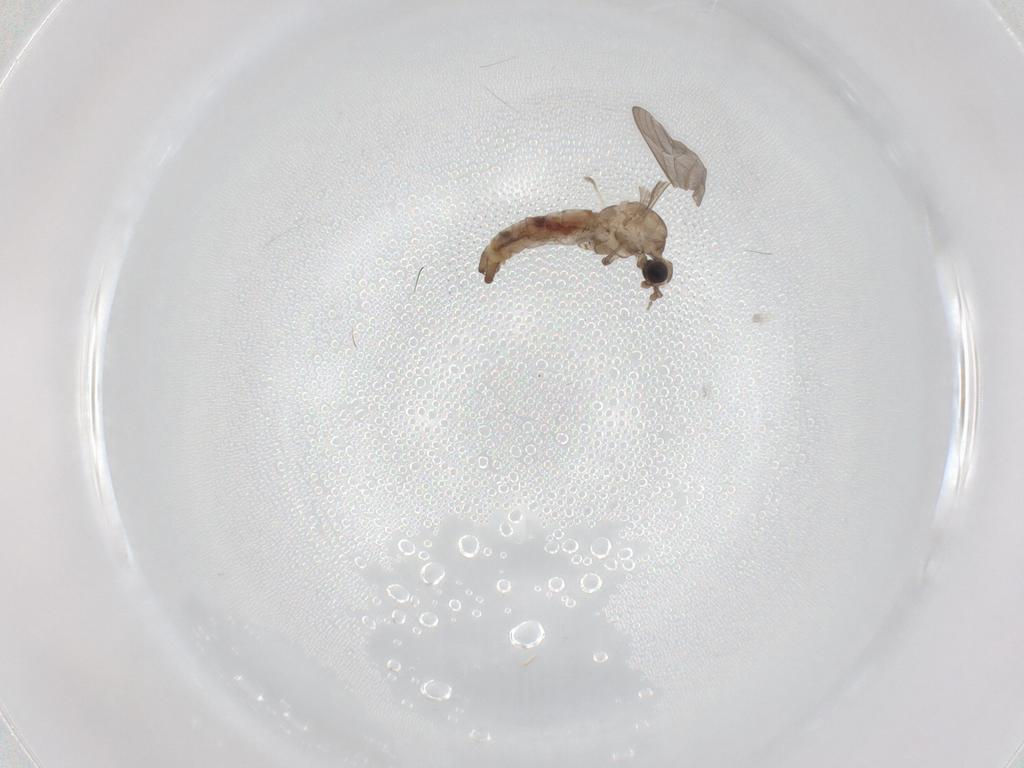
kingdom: Animalia
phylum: Arthropoda
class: Insecta
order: Diptera
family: Limoniidae
